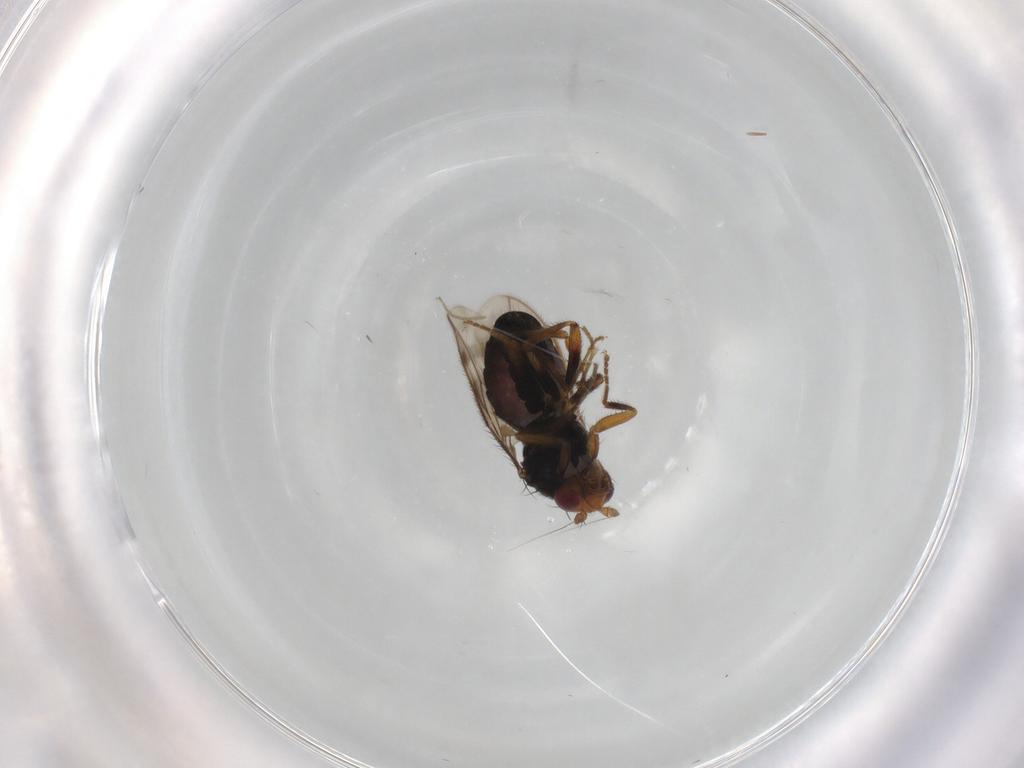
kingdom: Animalia
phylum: Arthropoda
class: Insecta
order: Diptera
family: Sphaeroceridae
